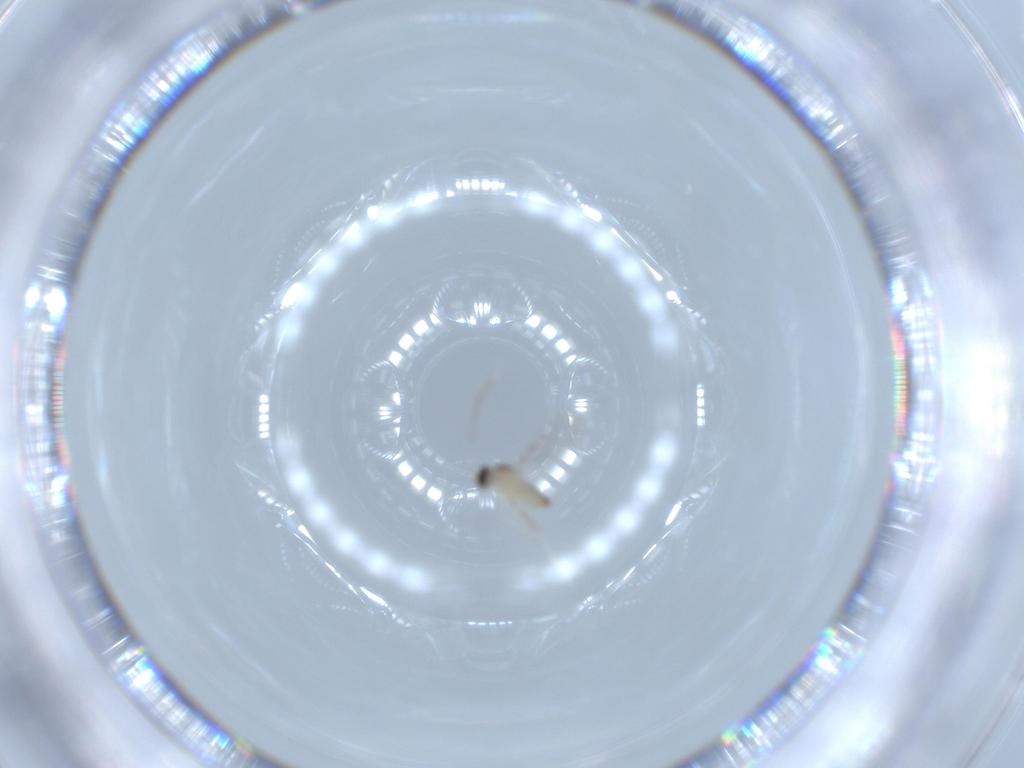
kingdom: Animalia
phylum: Arthropoda
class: Insecta
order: Diptera
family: Cecidomyiidae
